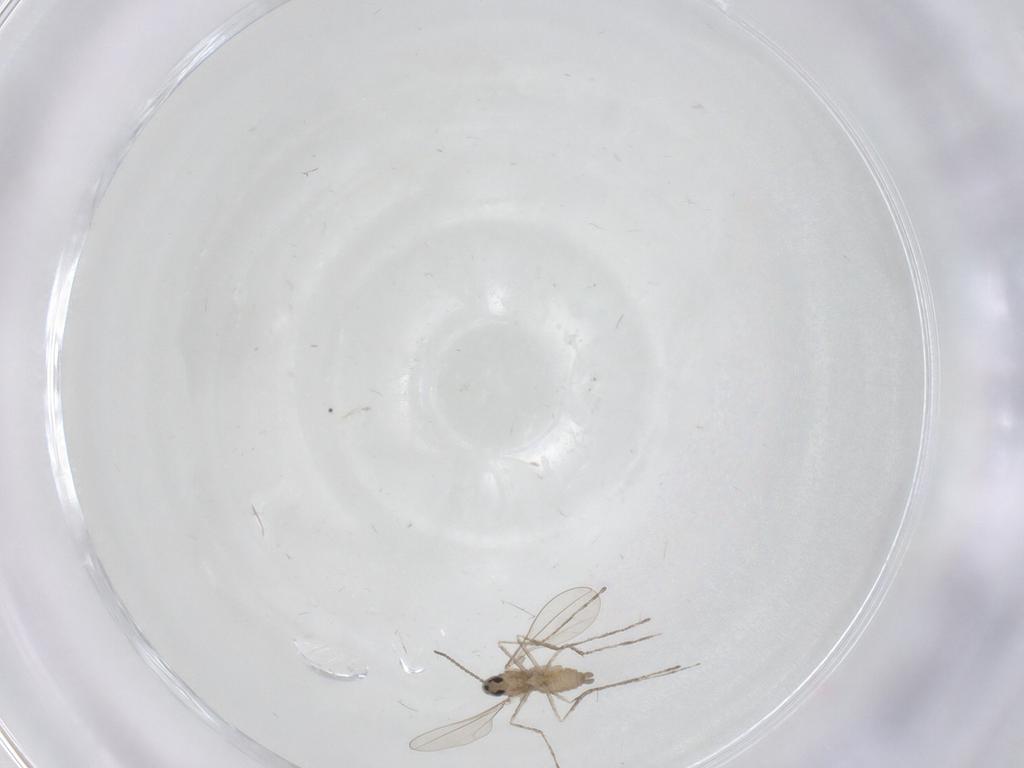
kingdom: Animalia
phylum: Arthropoda
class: Insecta
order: Diptera
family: Cecidomyiidae
